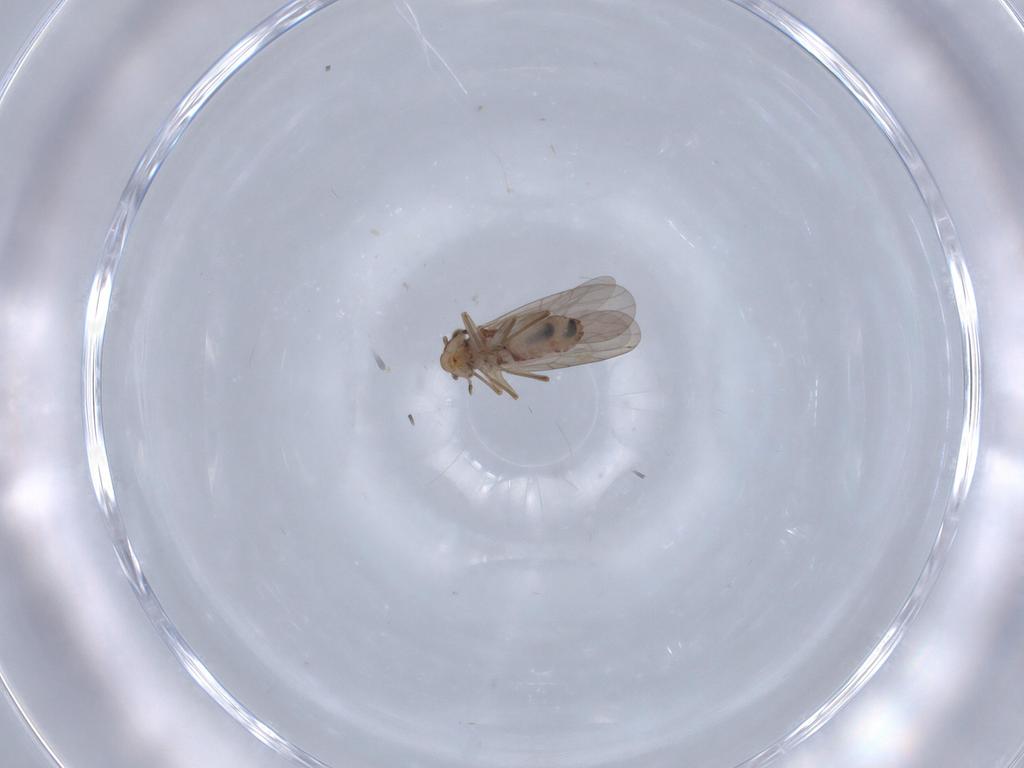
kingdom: Animalia
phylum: Arthropoda
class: Insecta
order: Psocodea
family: Lepidopsocidae
